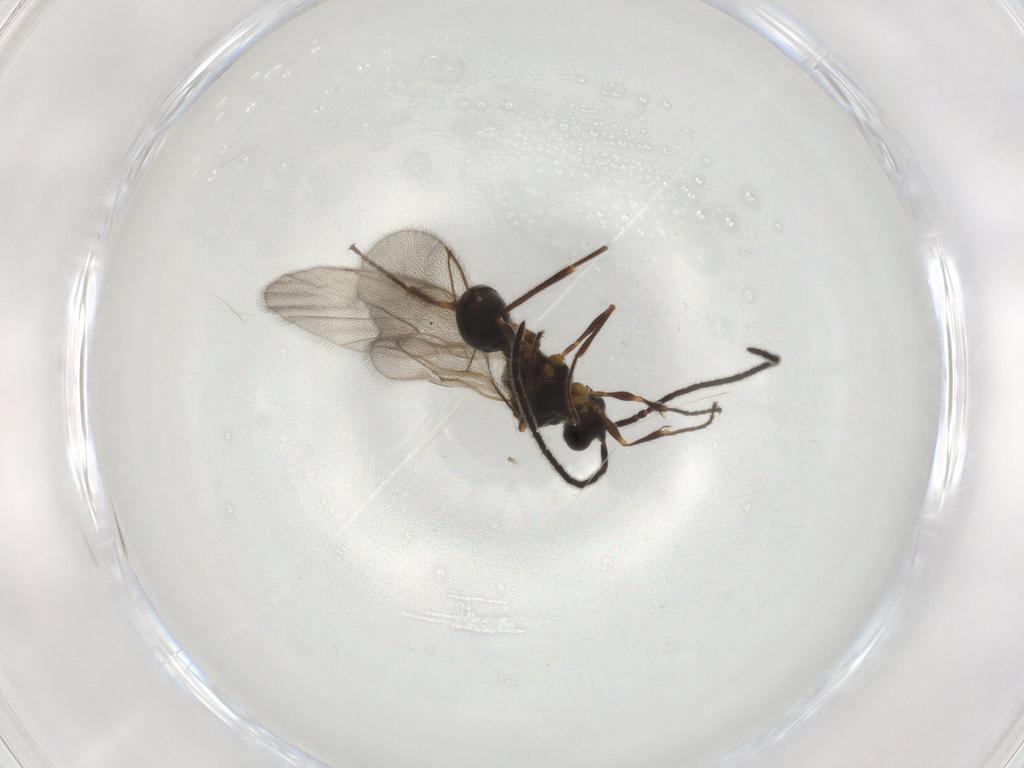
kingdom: Animalia
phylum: Arthropoda
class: Insecta
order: Hymenoptera
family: Diapriidae
